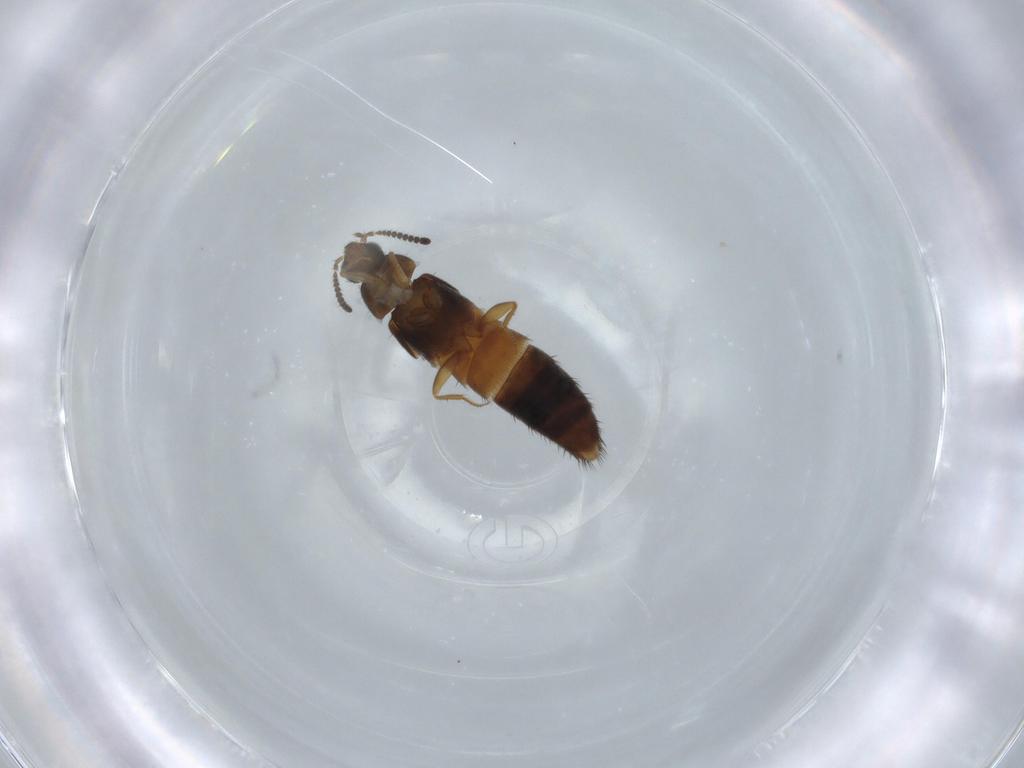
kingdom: Animalia
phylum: Arthropoda
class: Insecta
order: Coleoptera
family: Staphylinidae
